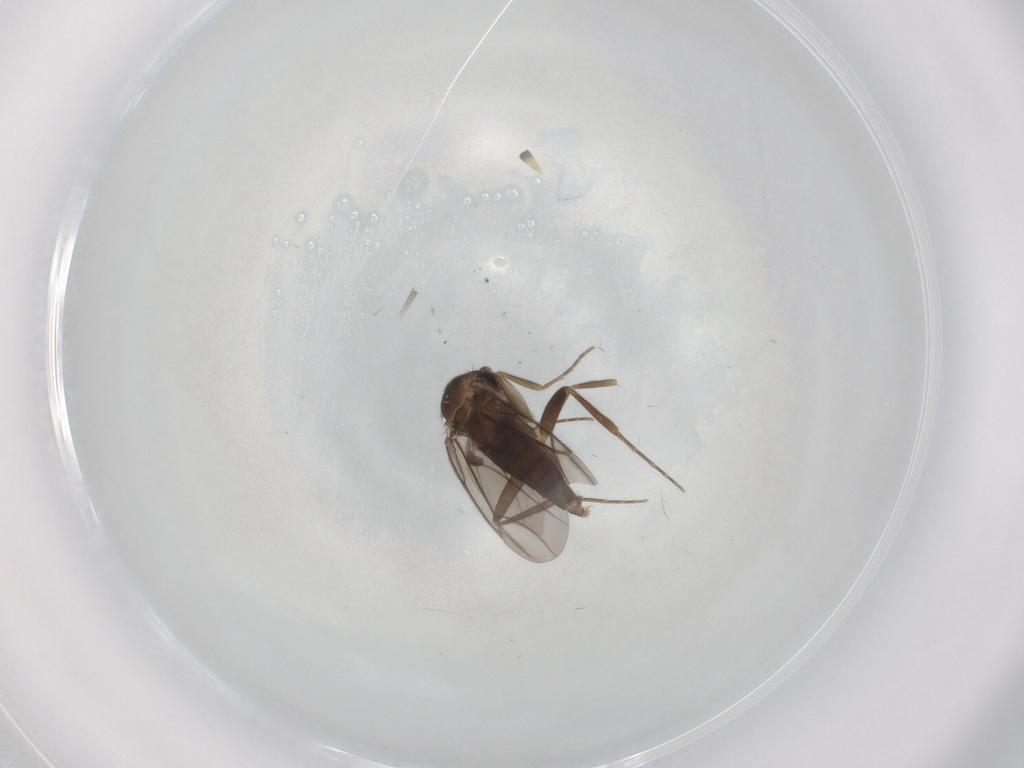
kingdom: Animalia
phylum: Arthropoda
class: Insecta
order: Diptera
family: Phoridae
